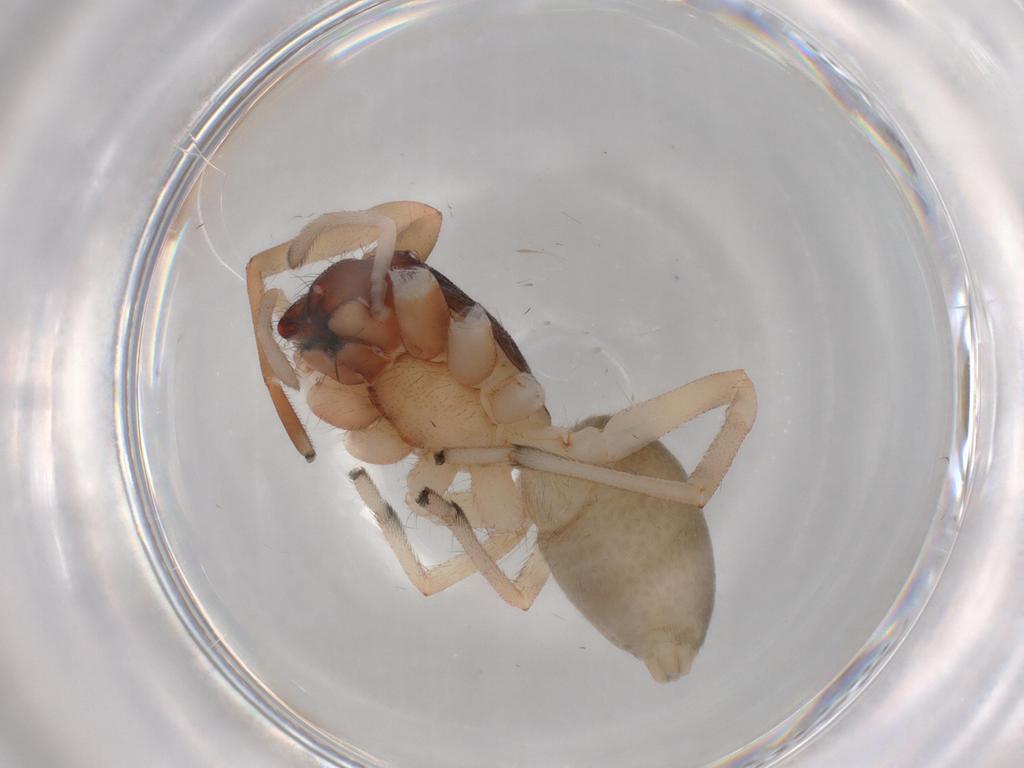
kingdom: Animalia
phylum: Arthropoda
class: Arachnida
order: Araneae
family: Trachelidae
